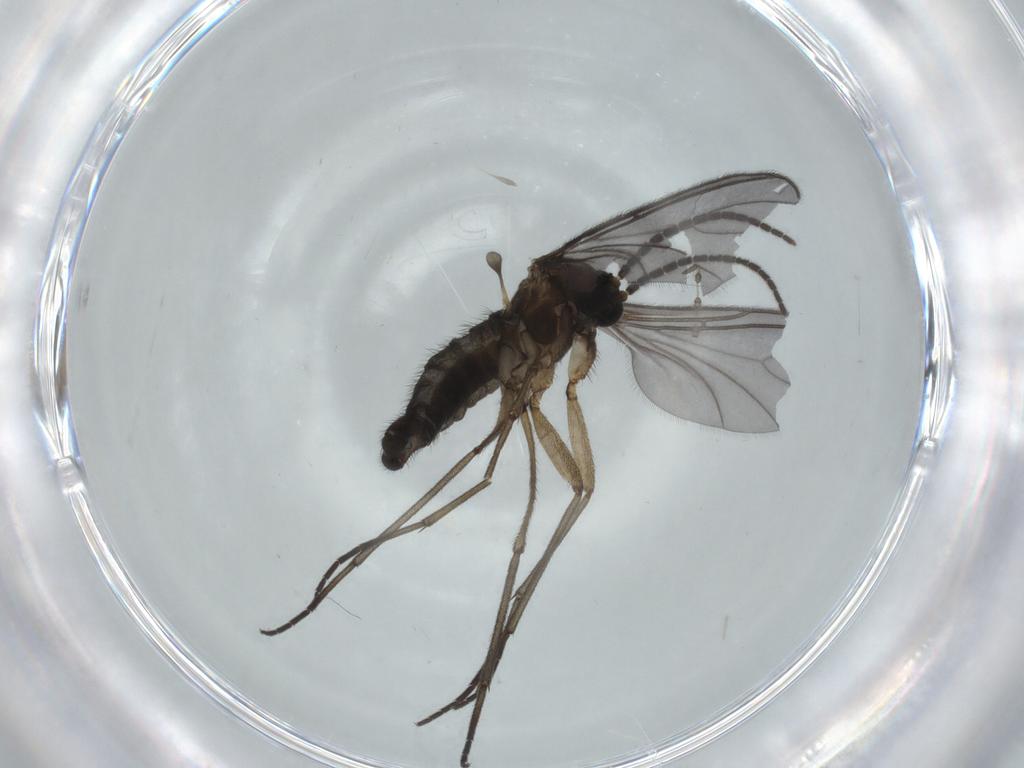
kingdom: Animalia
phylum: Arthropoda
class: Insecta
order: Diptera
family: Sciaridae
